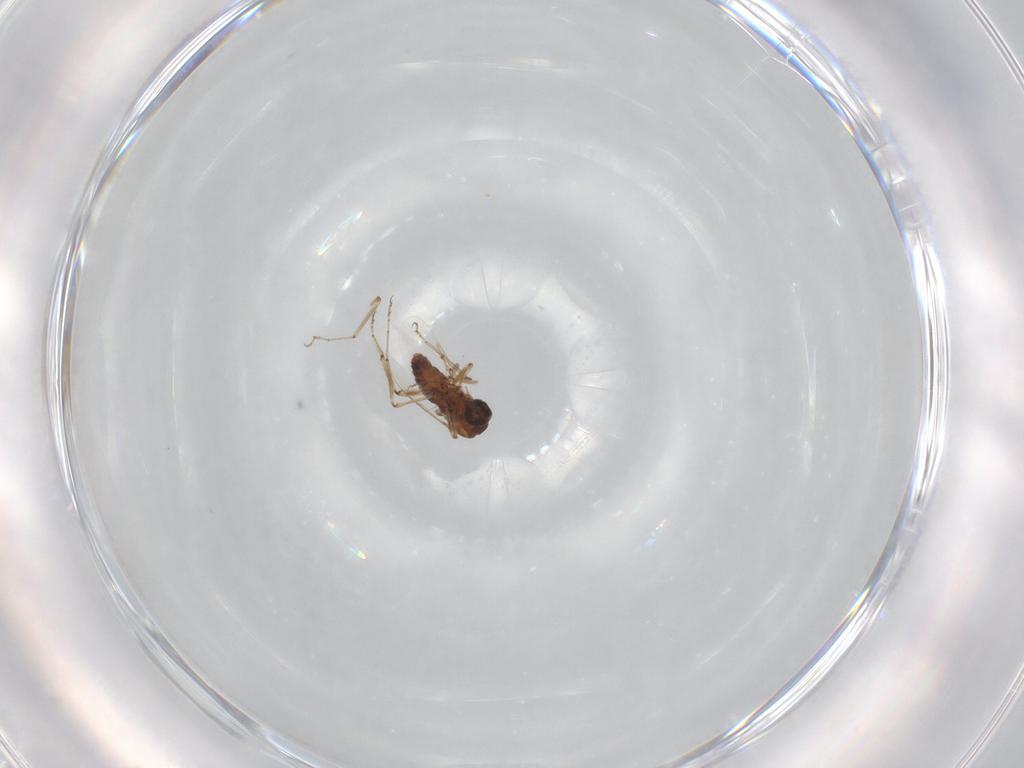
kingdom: Animalia
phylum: Arthropoda
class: Insecta
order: Diptera
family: Ceratopogonidae
